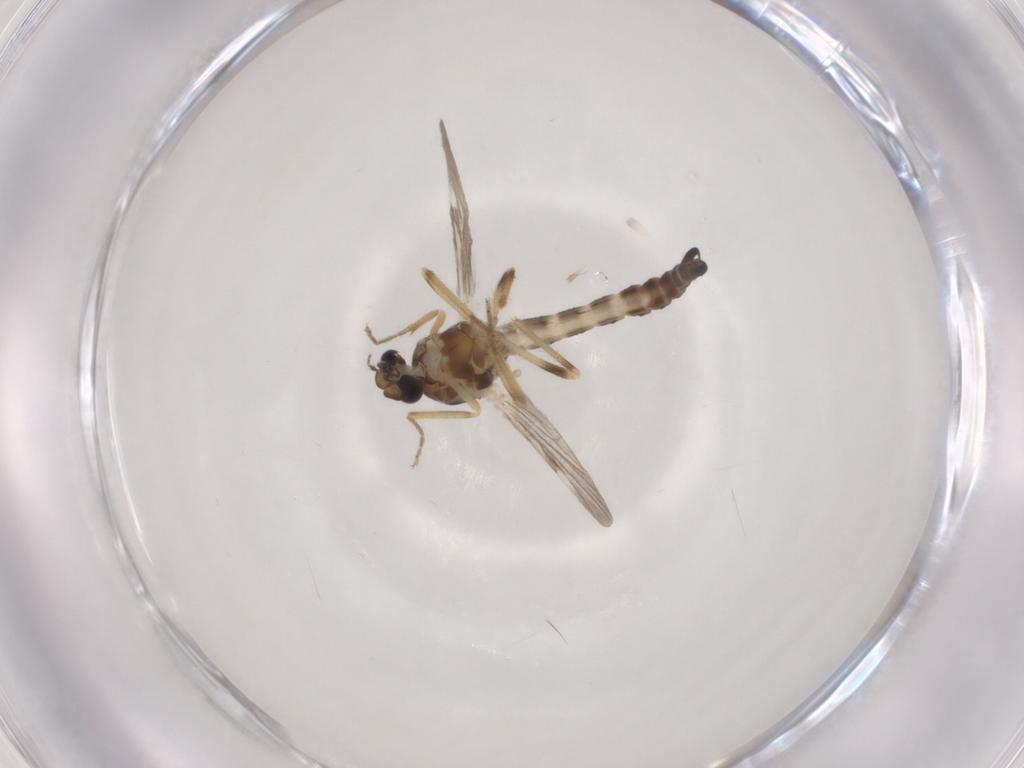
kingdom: Animalia
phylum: Arthropoda
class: Insecta
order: Diptera
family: Ceratopogonidae
